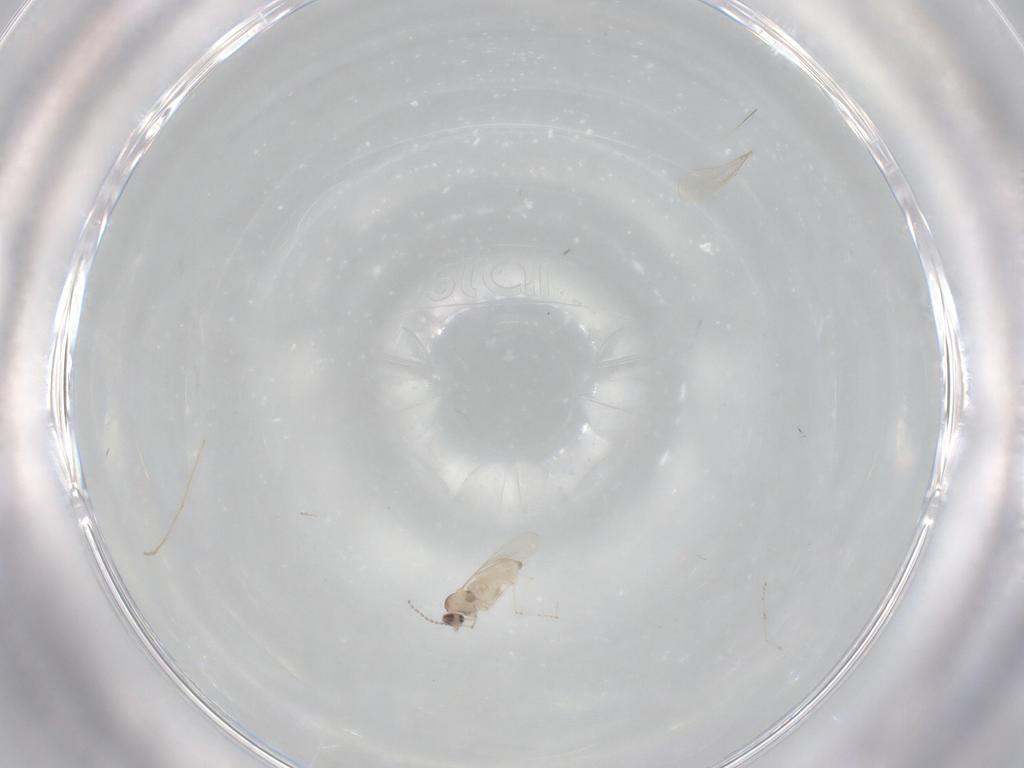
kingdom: Animalia
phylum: Arthropoda
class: Insecta
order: Diptera
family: Cecidomyiidae
